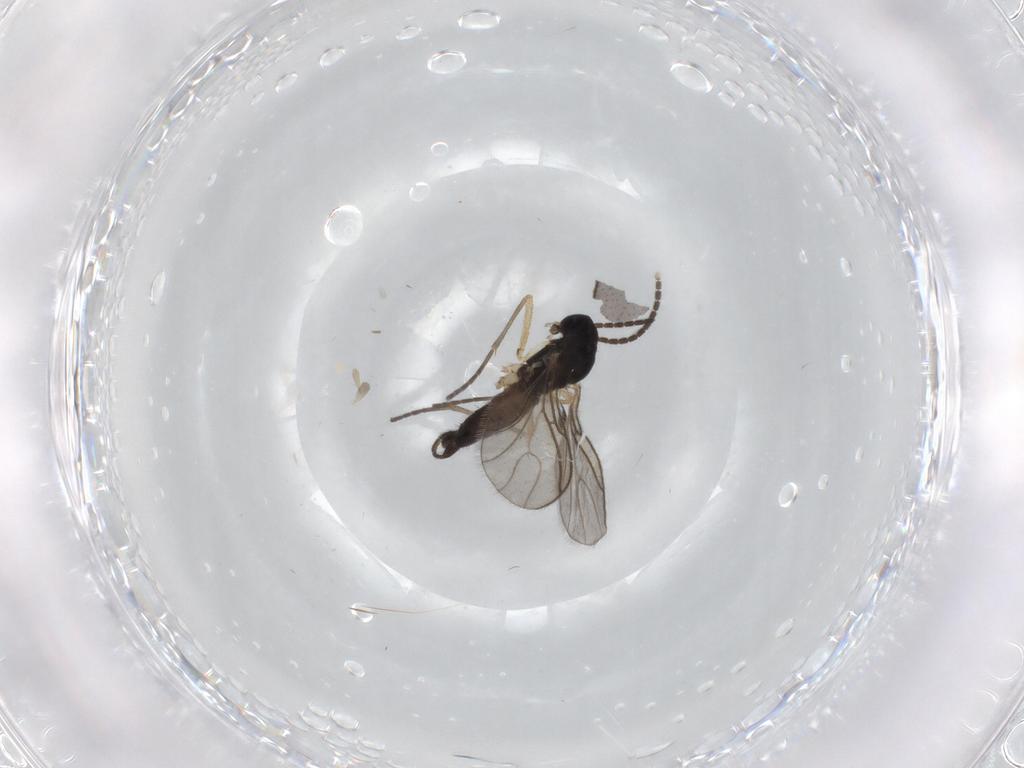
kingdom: Animalia
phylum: Arthropoda
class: Insecta
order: Diptera
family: Sciaridae
